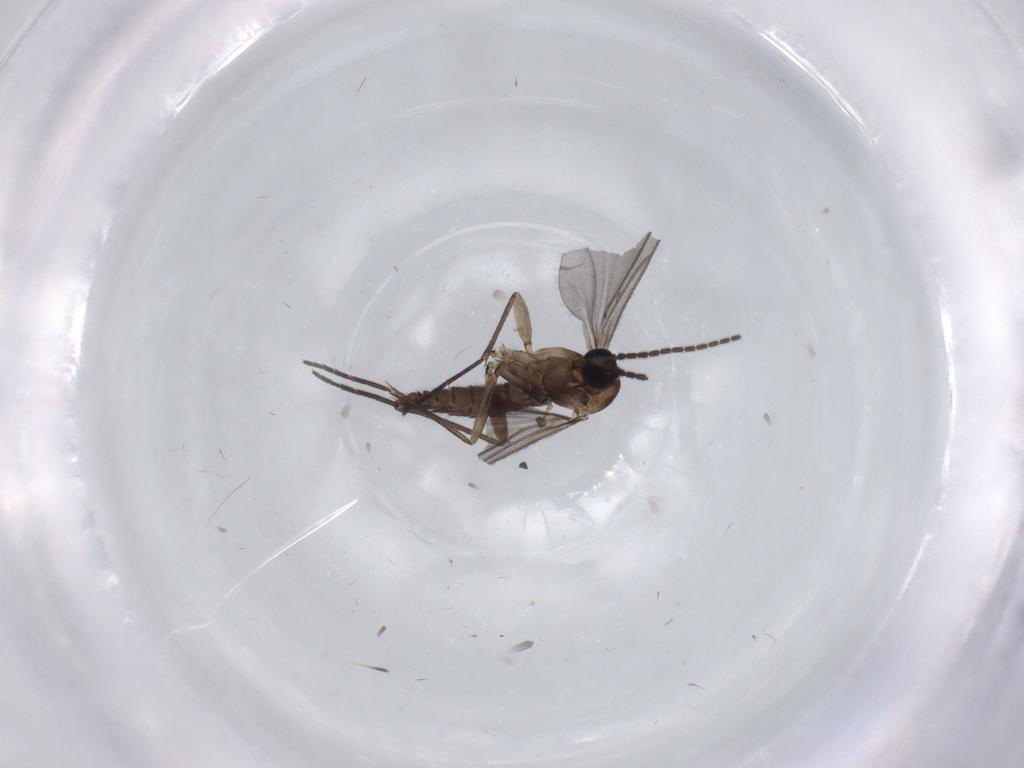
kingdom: Animalia
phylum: Arthropoda
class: Insecta
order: Diptera
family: Sciaridae
